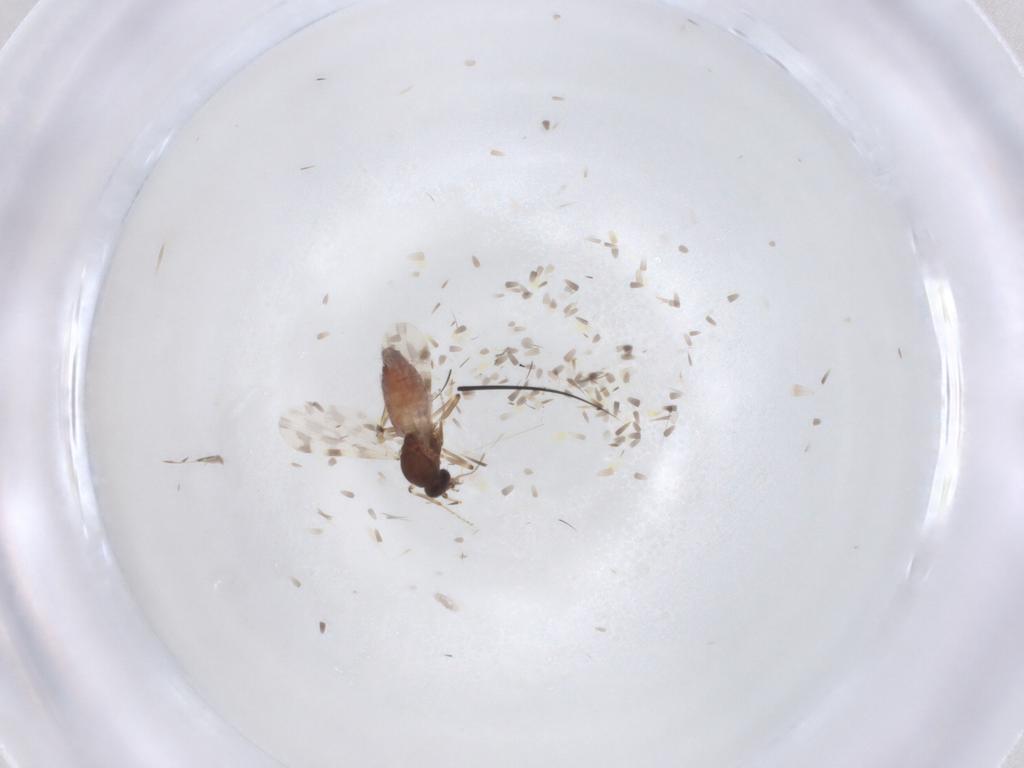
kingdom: Animalia
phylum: Arthropoda
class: Insecta
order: Diptera
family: Ceratopogonidae
